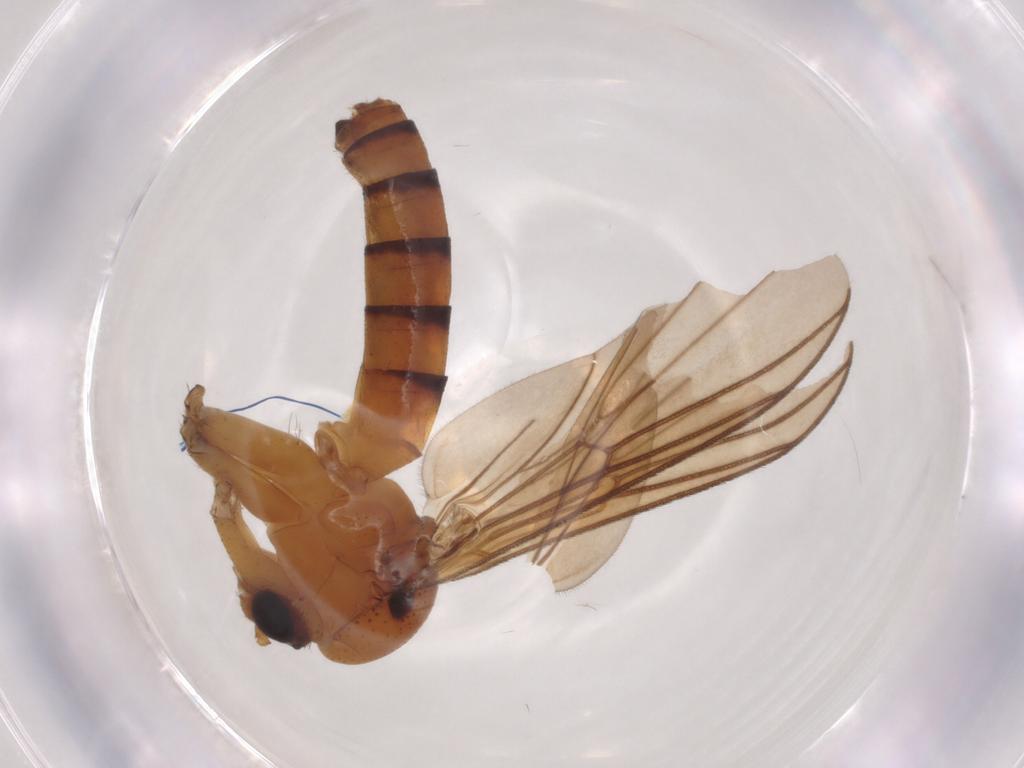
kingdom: Animalia
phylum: Arthropoda
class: Insecta
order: Diptera
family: Mycetophilidae
